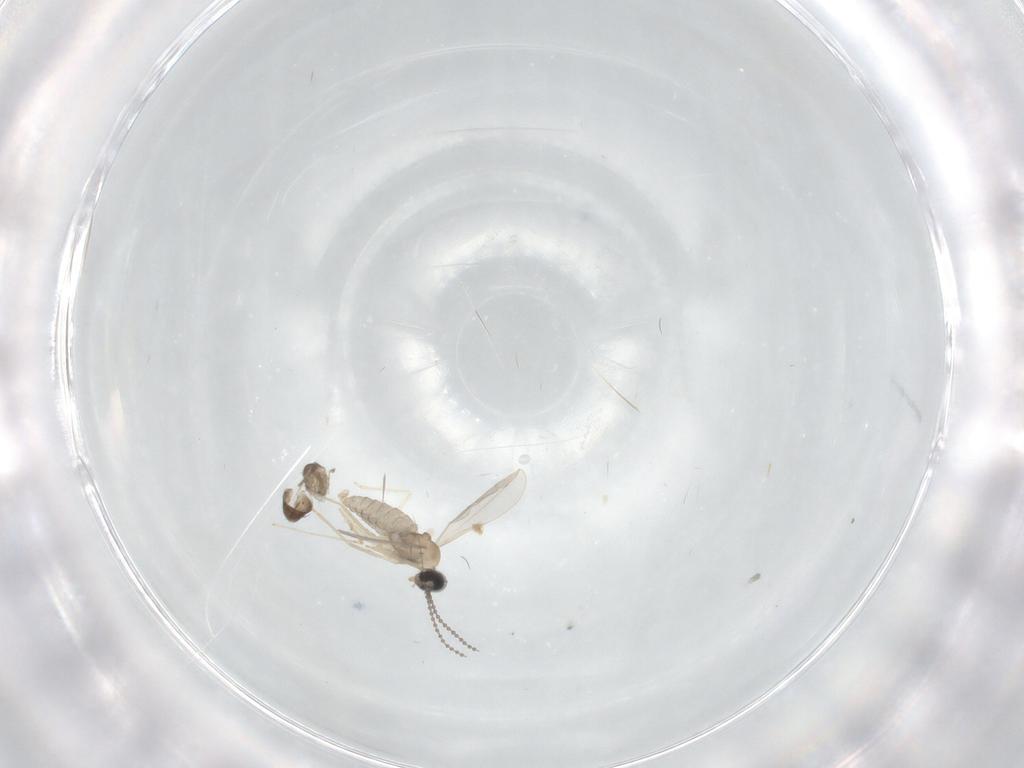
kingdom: Animalia
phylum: Arthropoda
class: Insecta
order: Diptera
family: Cecidomyiidae
